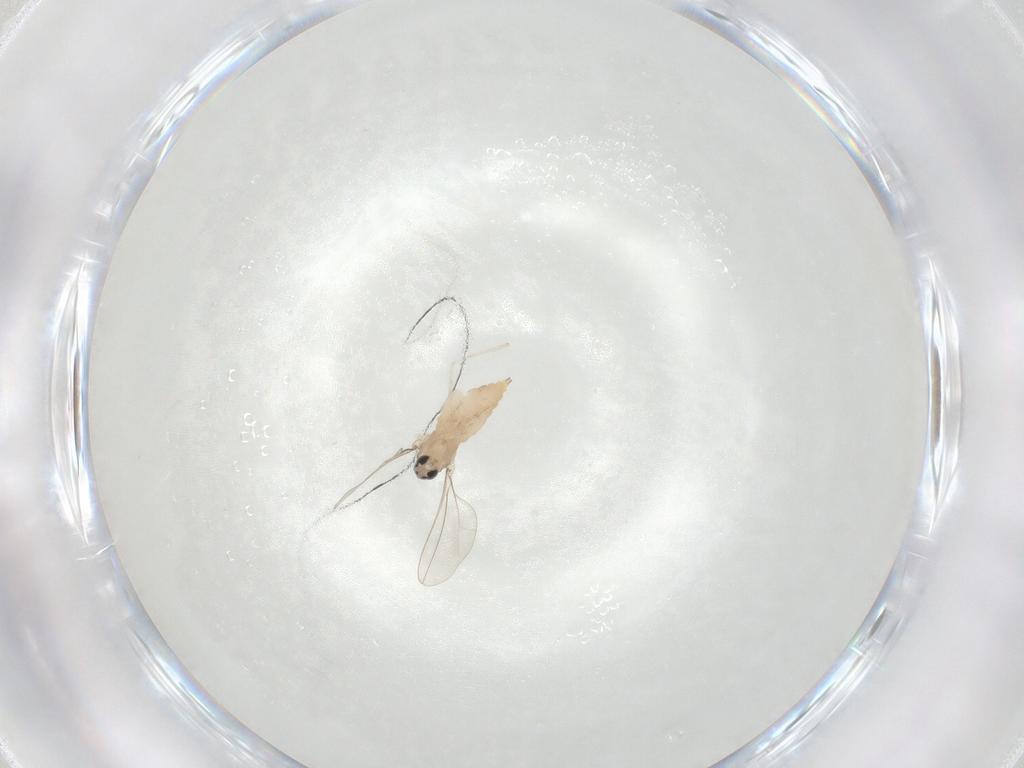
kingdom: Animalia
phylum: Arthropoda
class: Insecta
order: Diptera
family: Cecidomyiidae
